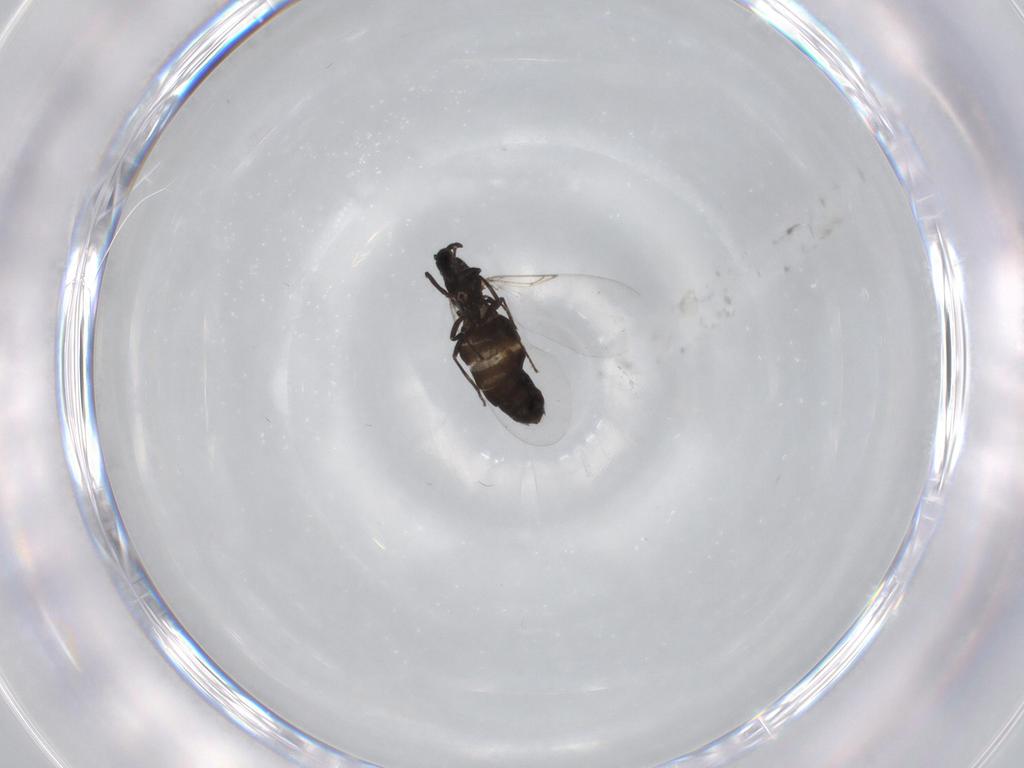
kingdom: Animalia
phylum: Arthropoda
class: Insecta
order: Diptera
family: Scatopsidae
